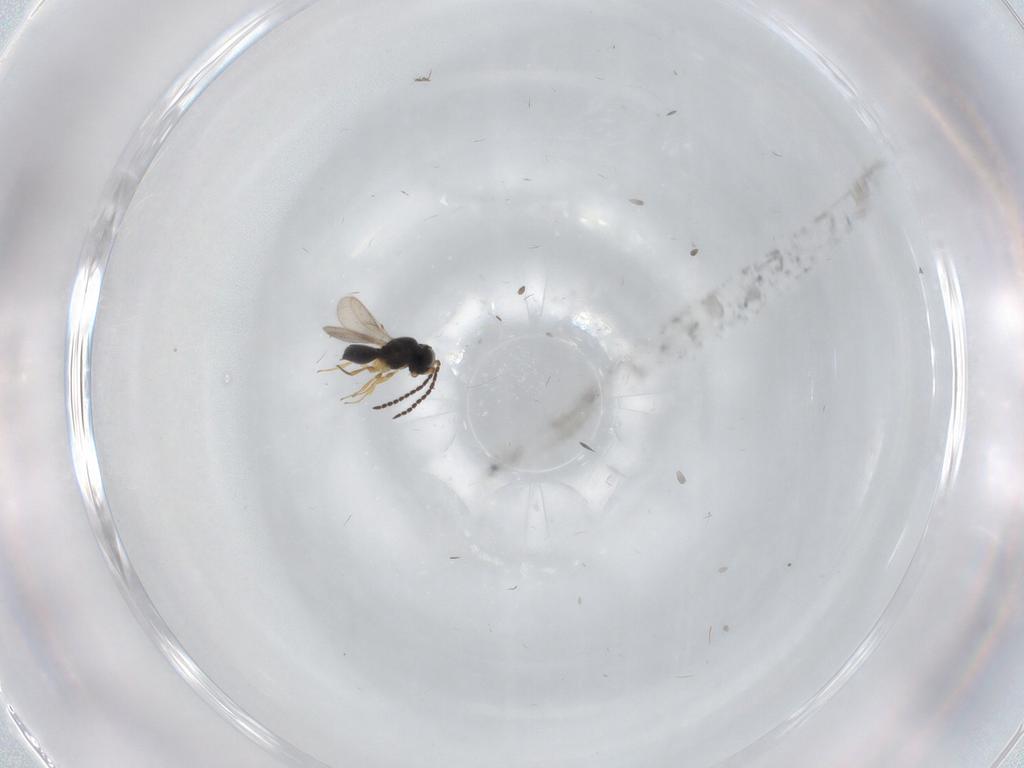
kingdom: Animalia
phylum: Arthropoda
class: Insecta
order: Hymenoptera
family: Scelionidae
